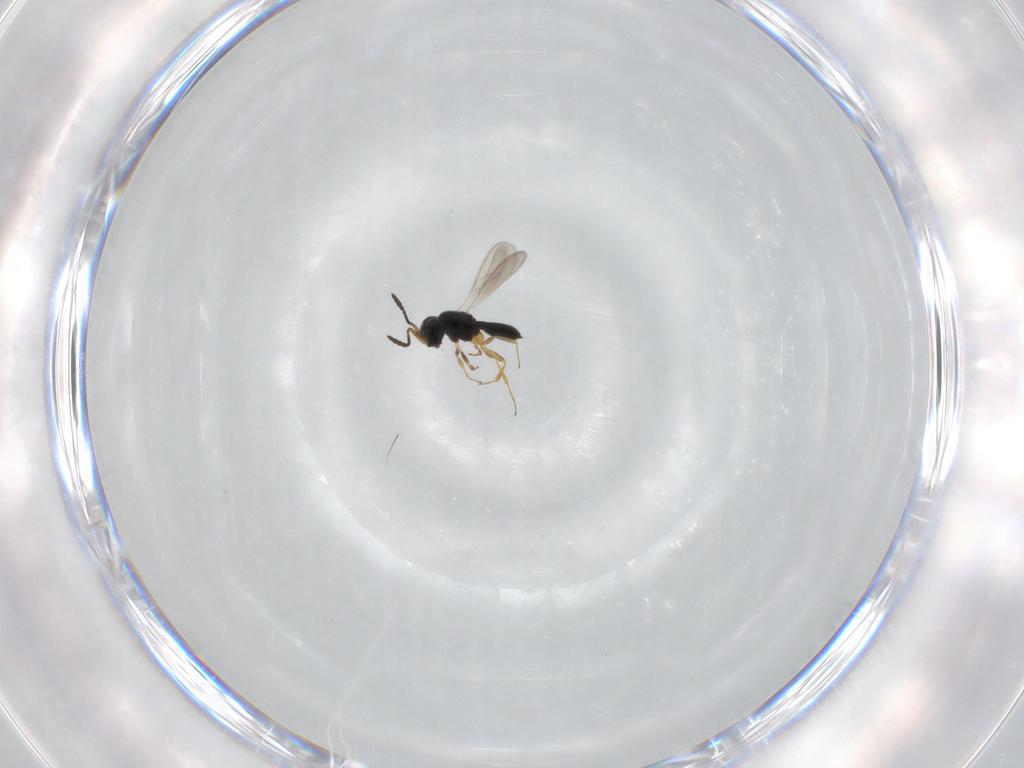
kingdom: Animalia
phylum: Arthropoda
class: Insecta
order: Hymenoptera
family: Scelionidae
